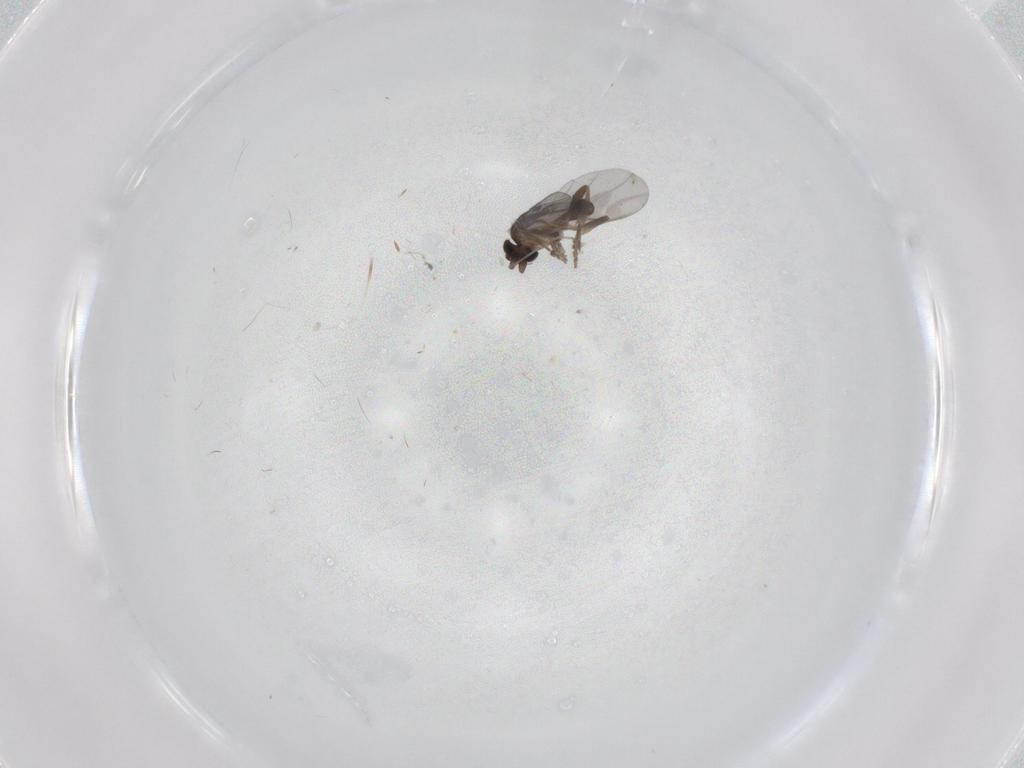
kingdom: Animalia
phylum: Arthropoda
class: Insecta
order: Diptera
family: Cecidomyiidae
